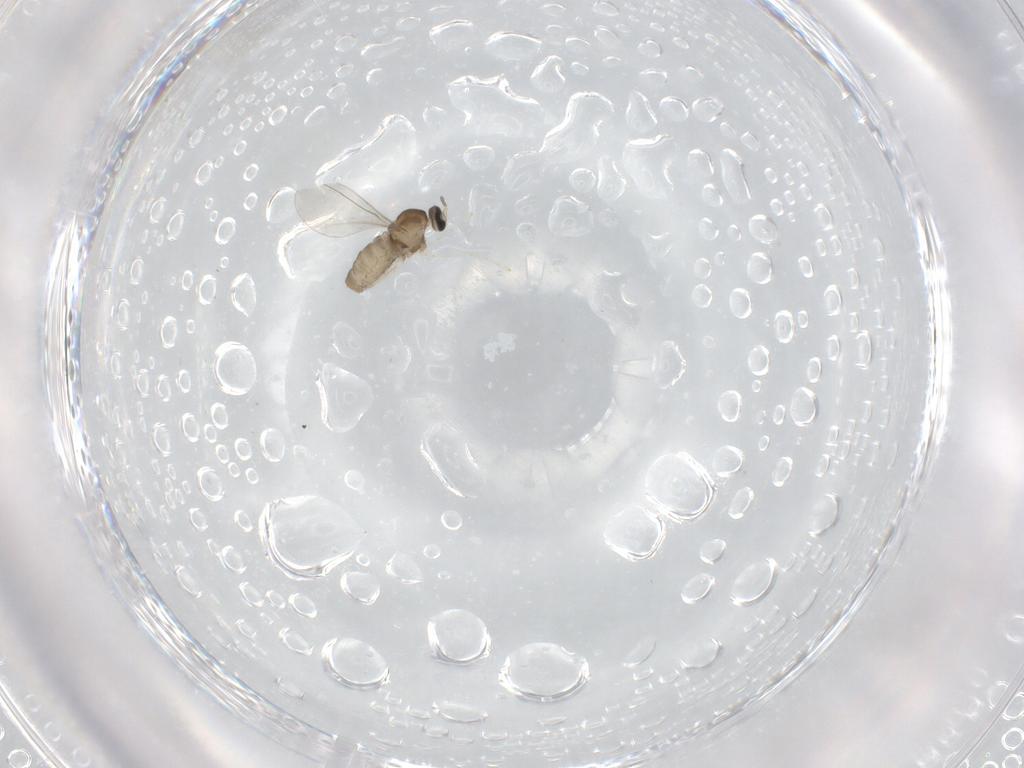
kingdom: Animalia
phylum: Arthropoda
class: Insecta
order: Diptera
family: Cecidomyiidae
